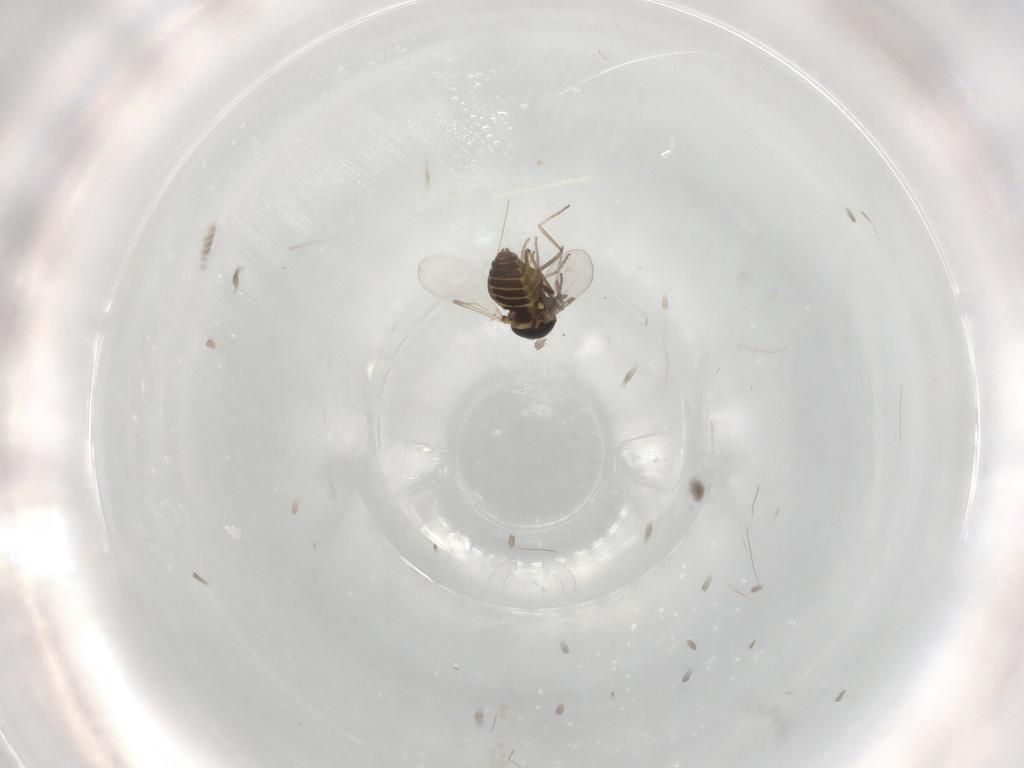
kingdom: Animalia
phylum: Arthropoda
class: Insecta
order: Diptera
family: Ceratopogonidae
